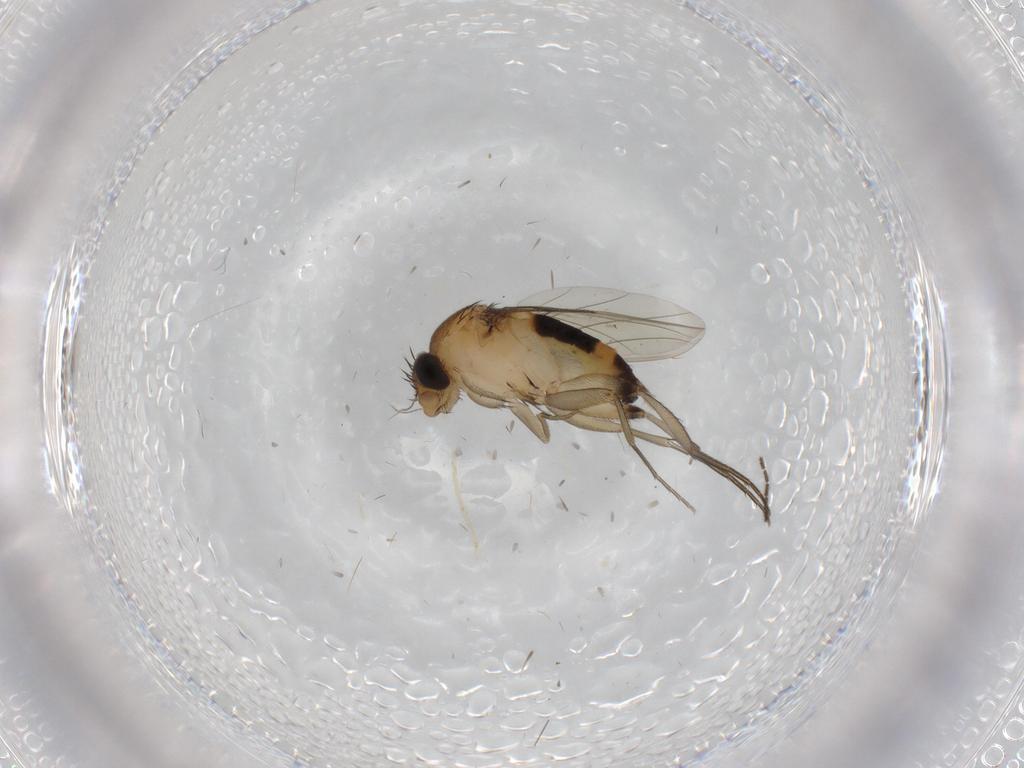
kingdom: Animalia
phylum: Arthropoda
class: Insecta
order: Diptera
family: Phoridae
